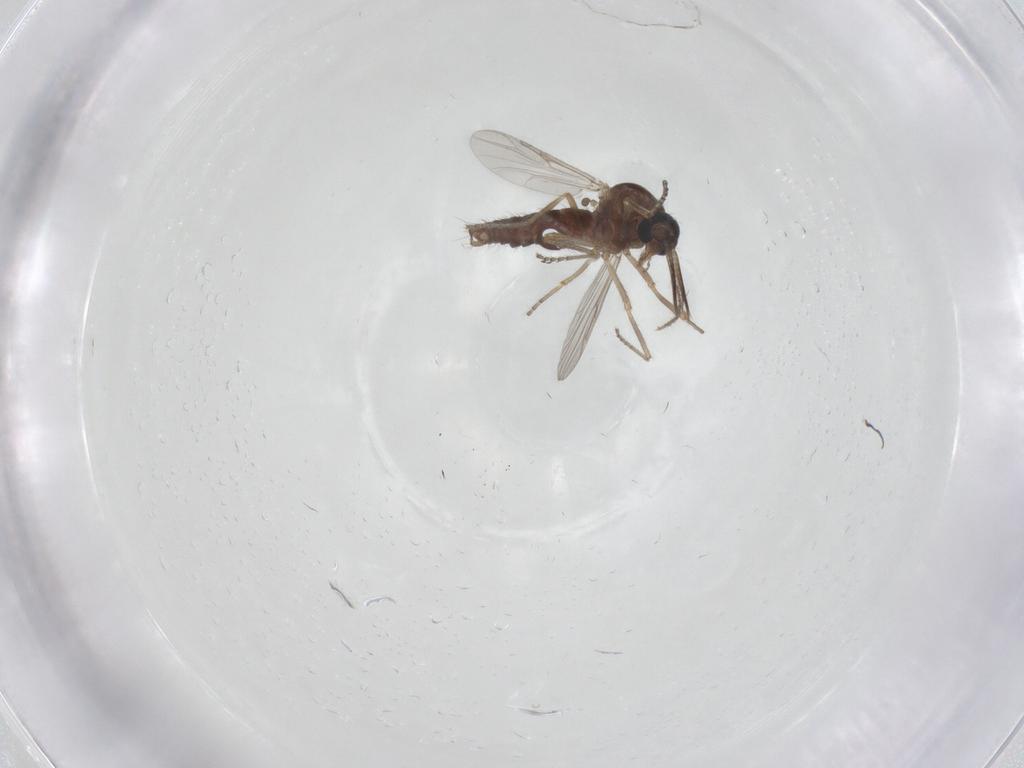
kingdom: Animalia
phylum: Arthropoda
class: Insecta
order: Diptera
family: Ceratopogonidae
